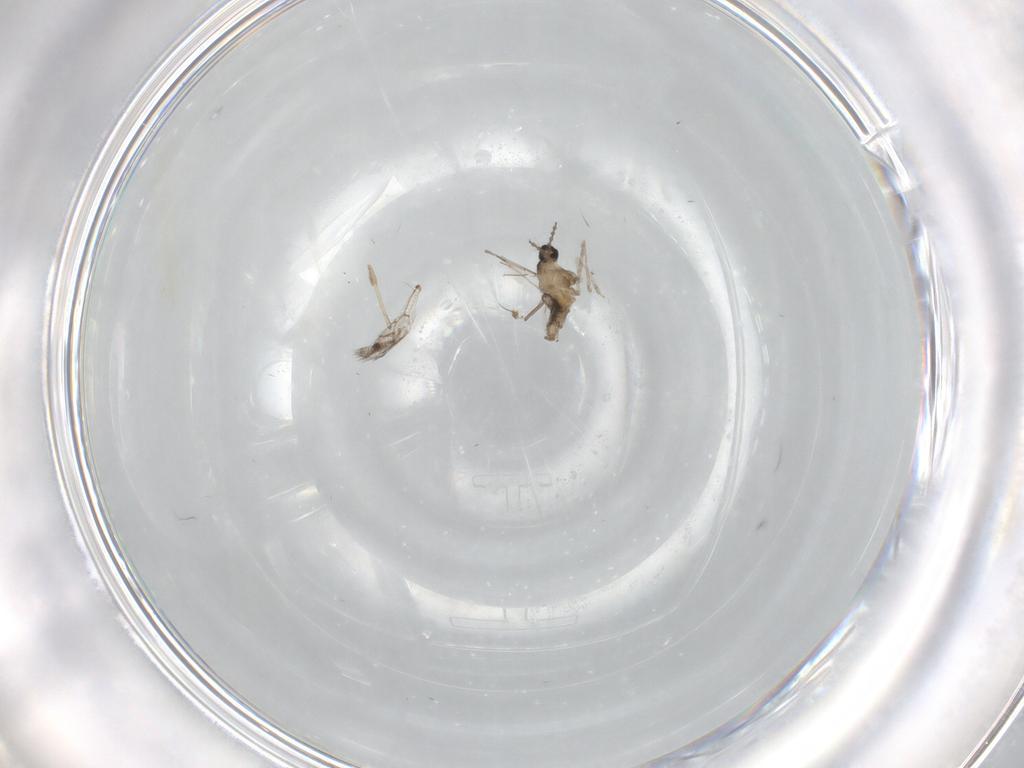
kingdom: Animalia
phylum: Arthropoda
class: Insecta
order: Diptera
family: Cecidomyiidae
